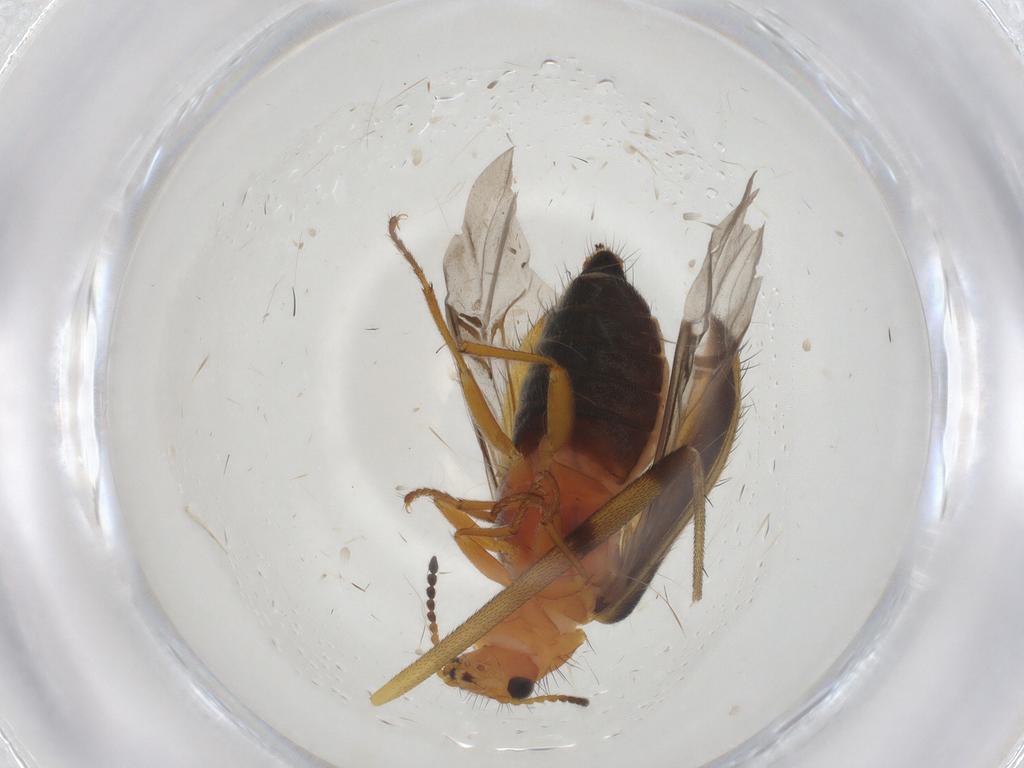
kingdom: Animalia
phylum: Arthropoda
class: Insecta
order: Coleoptera
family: Melyridae
